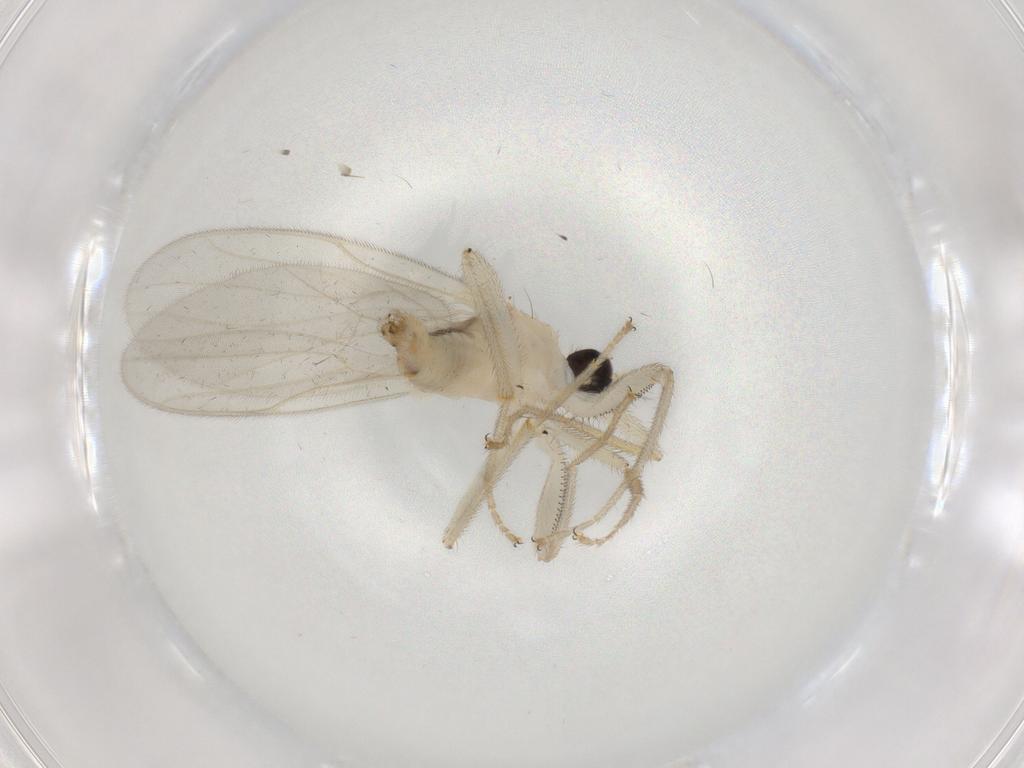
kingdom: Animalia
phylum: Arthropoda
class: Insecta
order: Diptera
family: Hybotidae
